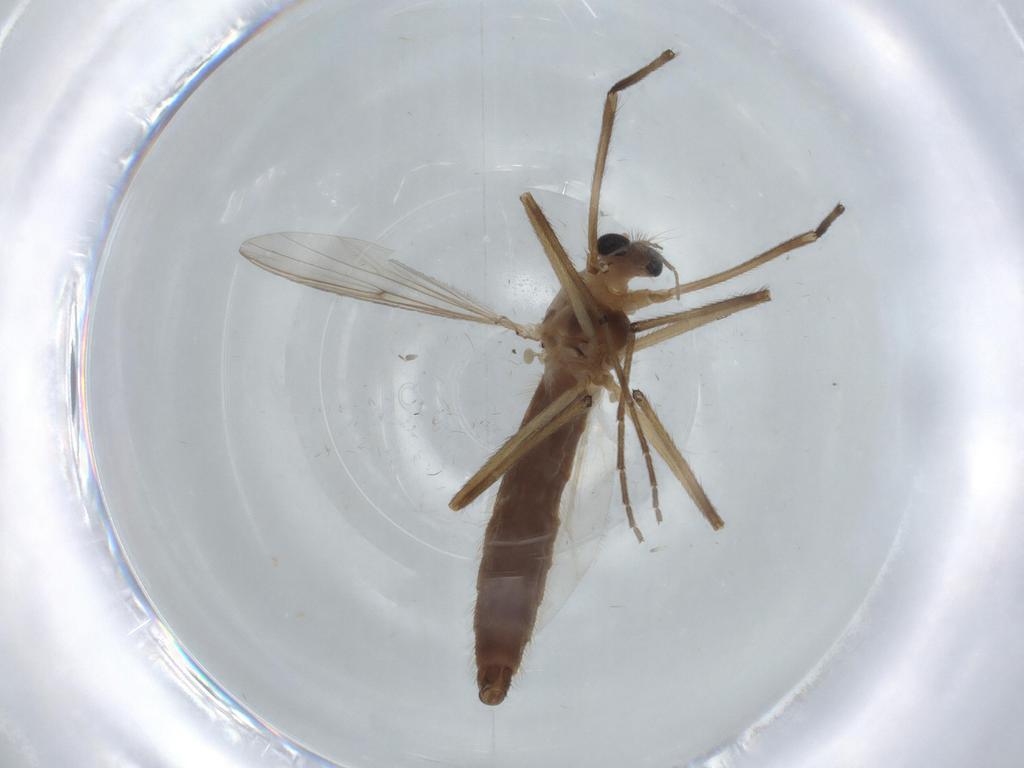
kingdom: Animalia
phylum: Arthropoda
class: Insecta
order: Diptera
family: Chironomidae
